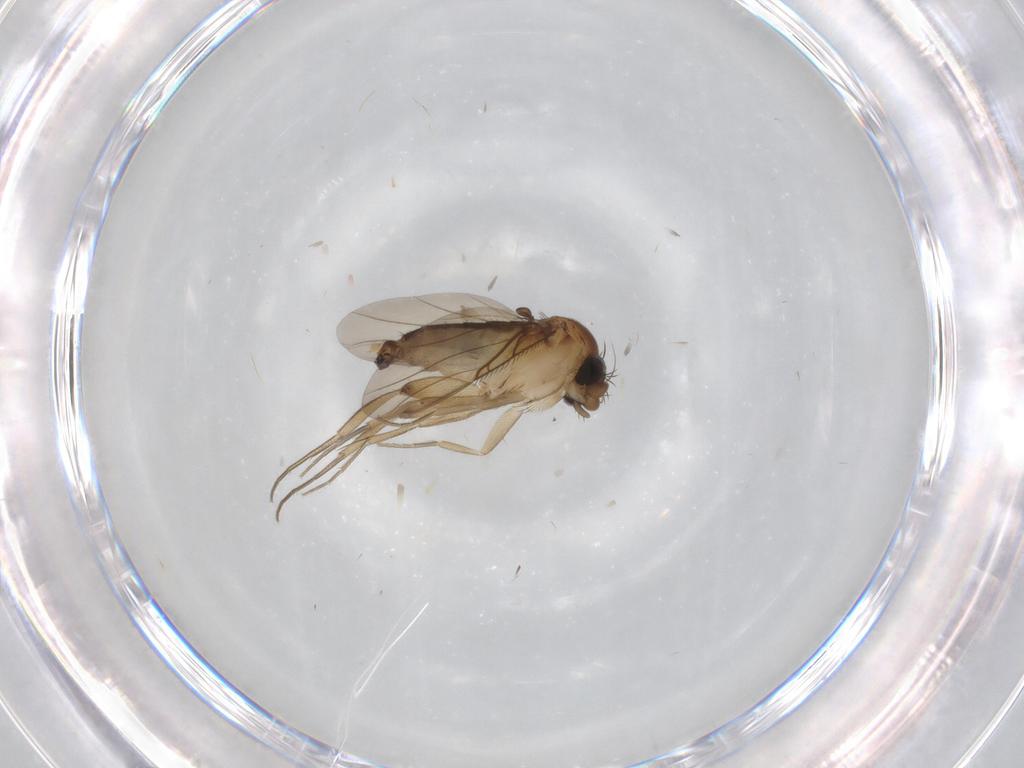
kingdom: Animalia
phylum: Arthropoda
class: Insecta
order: Diptera
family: Phoridae
